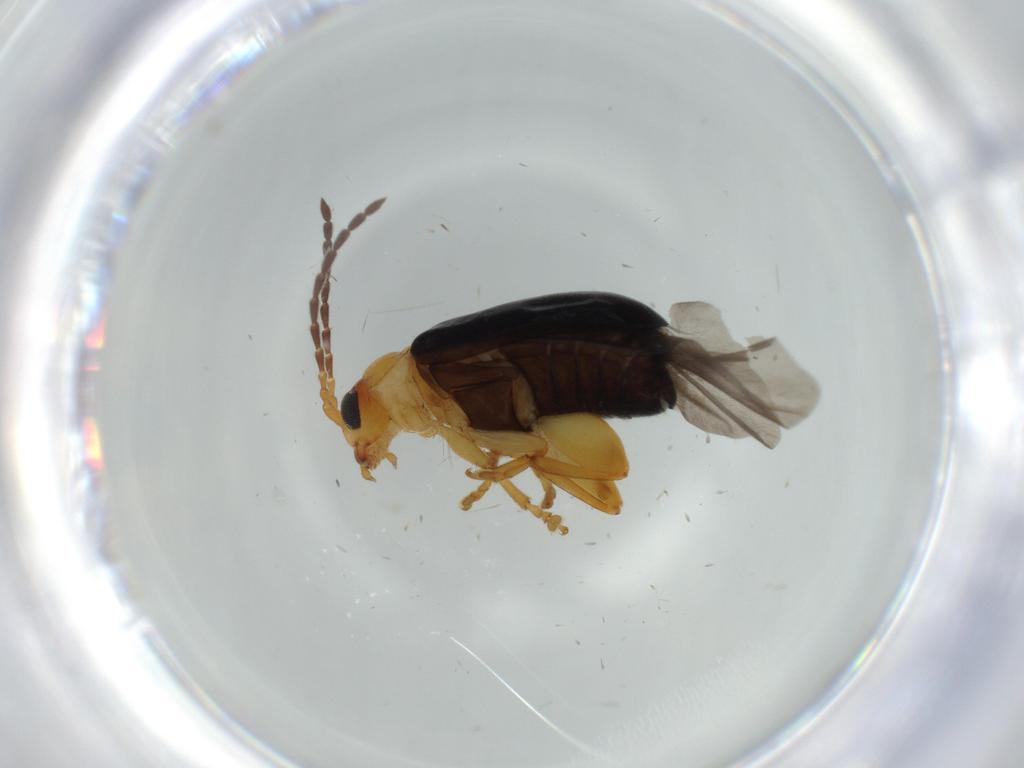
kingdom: Animalia
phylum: Arthropoda
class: Insecta
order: Coleoptera
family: Chrysomelidae
